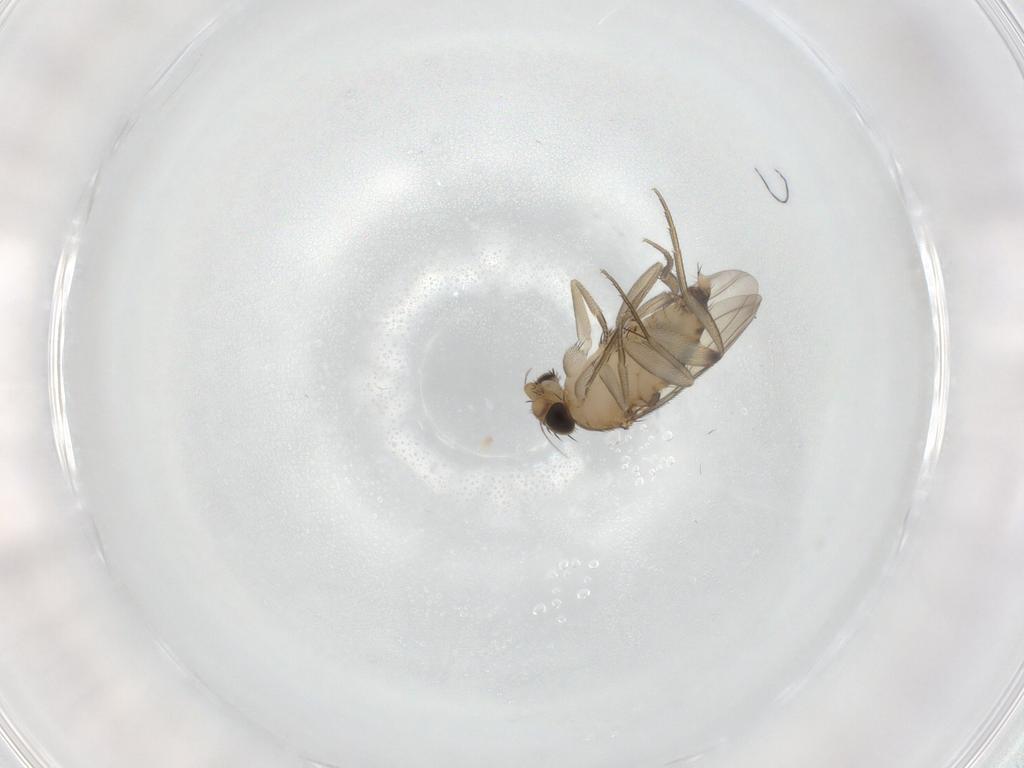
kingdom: Animalia
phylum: Arthropoda
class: Insecta
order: Diptera
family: Phoridae
